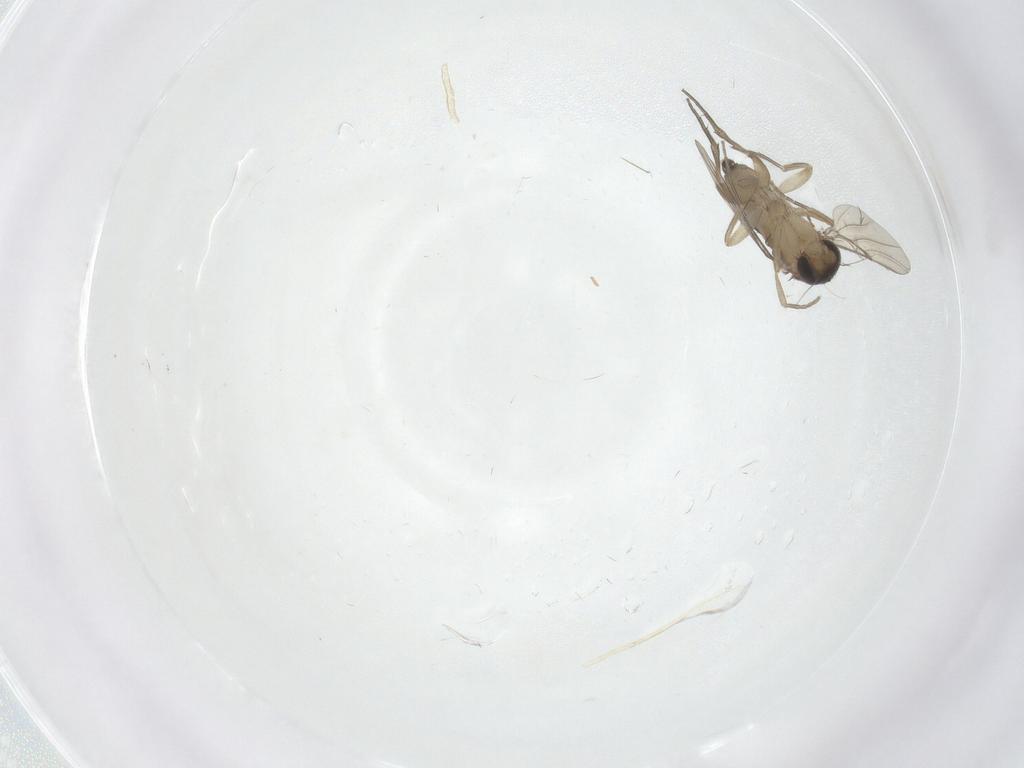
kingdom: Animalia
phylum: Arthropoda
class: Insecta
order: Diptera
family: Phoridae
